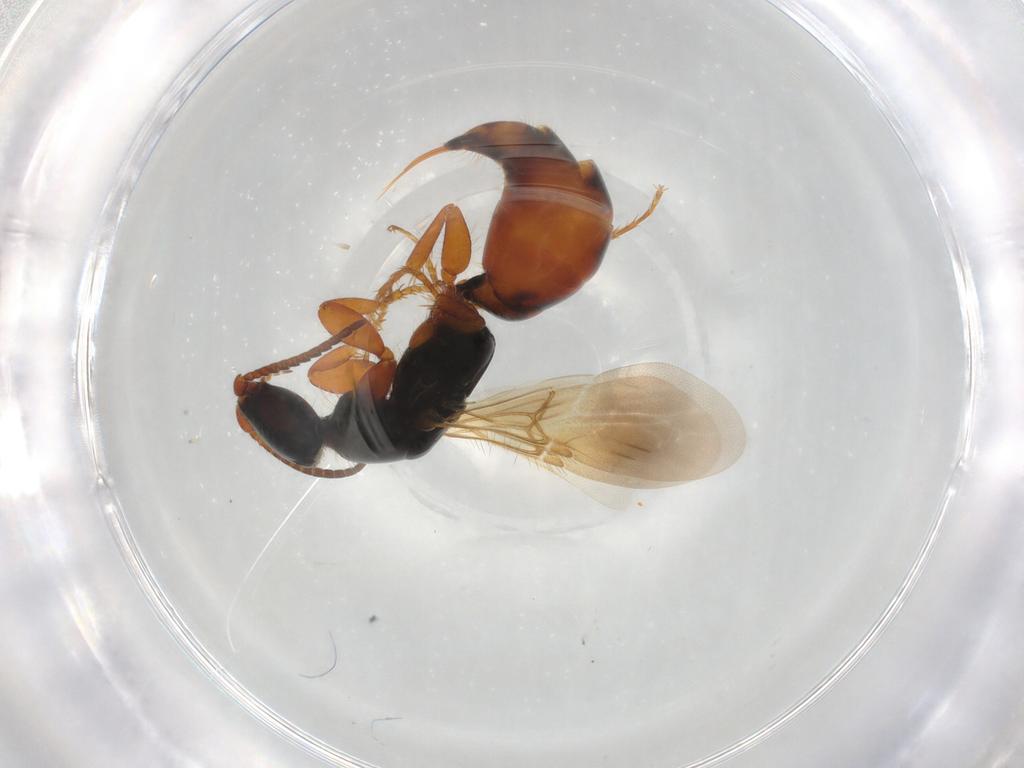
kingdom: Animalia
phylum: Arthropoda
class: Insecta
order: Hymenoptera
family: Bethylidae
